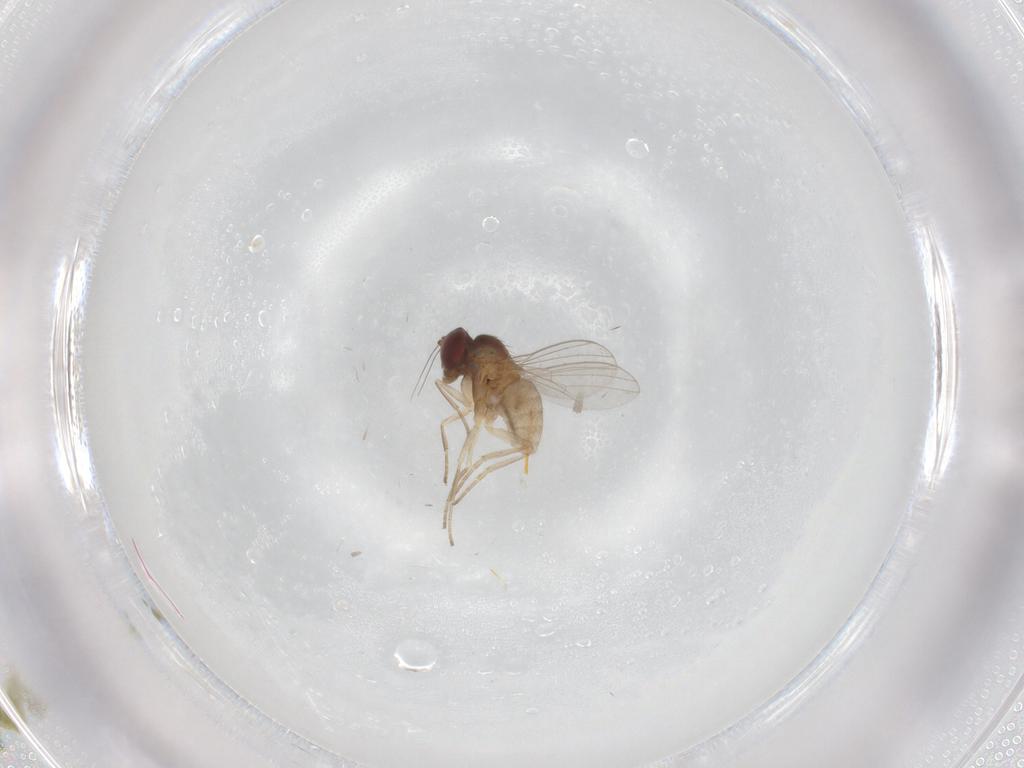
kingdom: Animalia
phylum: Arthropoda
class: Insecta
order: Diptera
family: Dolichopodidae
